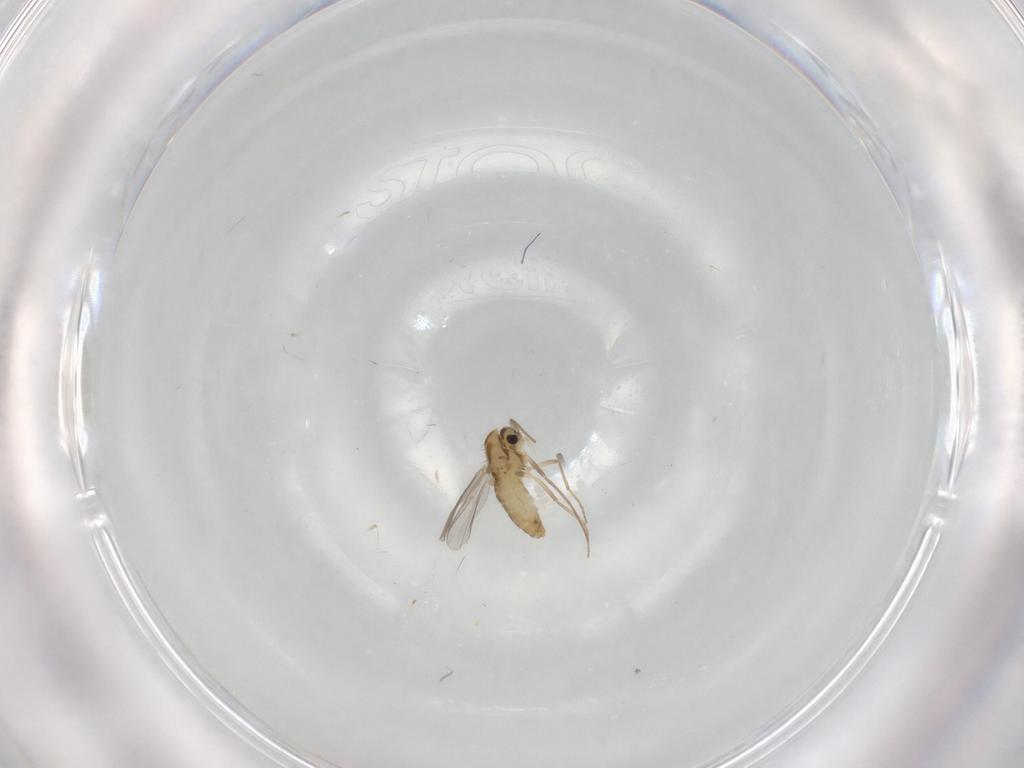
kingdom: Animalia
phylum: Arthropoda
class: Insecta
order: Diptera
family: Chironomidae
